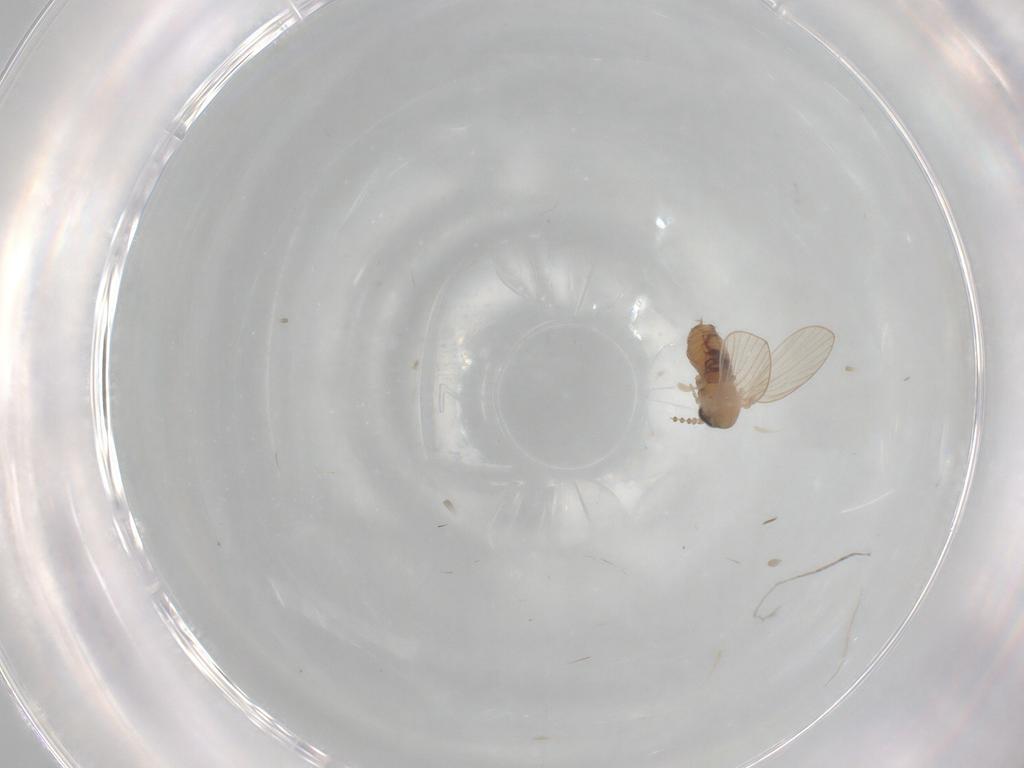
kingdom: Animalia
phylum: Arthropoda
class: Insecta
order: Diptera
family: Psychodidae
